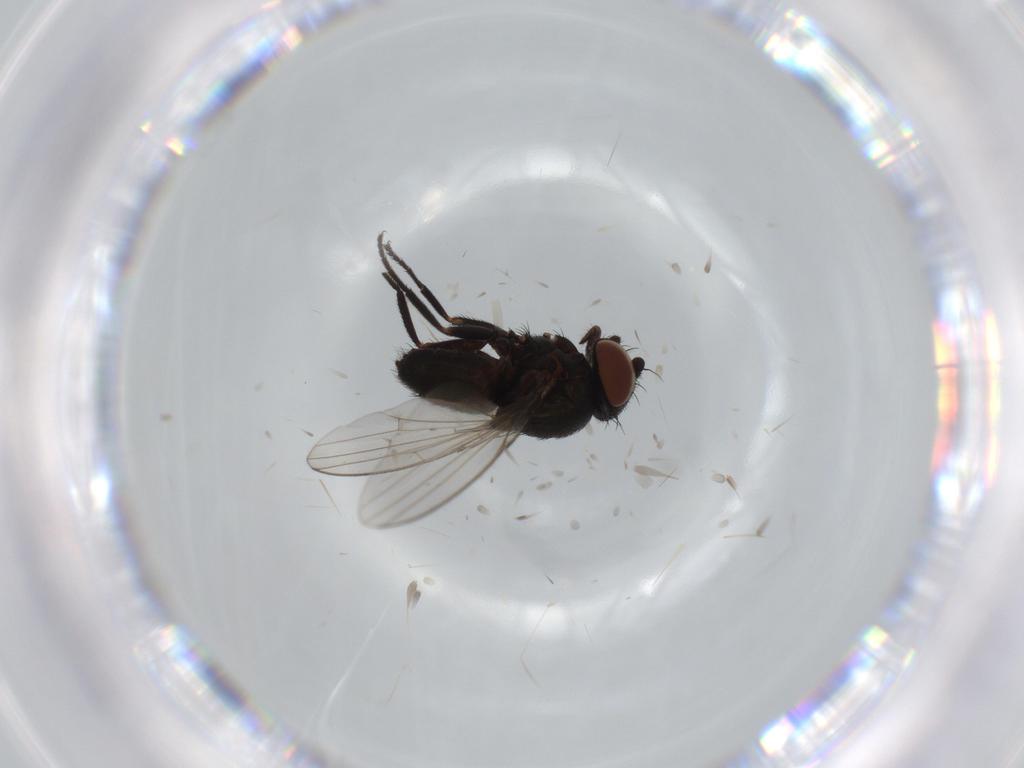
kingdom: Animalia
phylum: Arthropoda
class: Insecta
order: Diptera
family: Milichiidae
